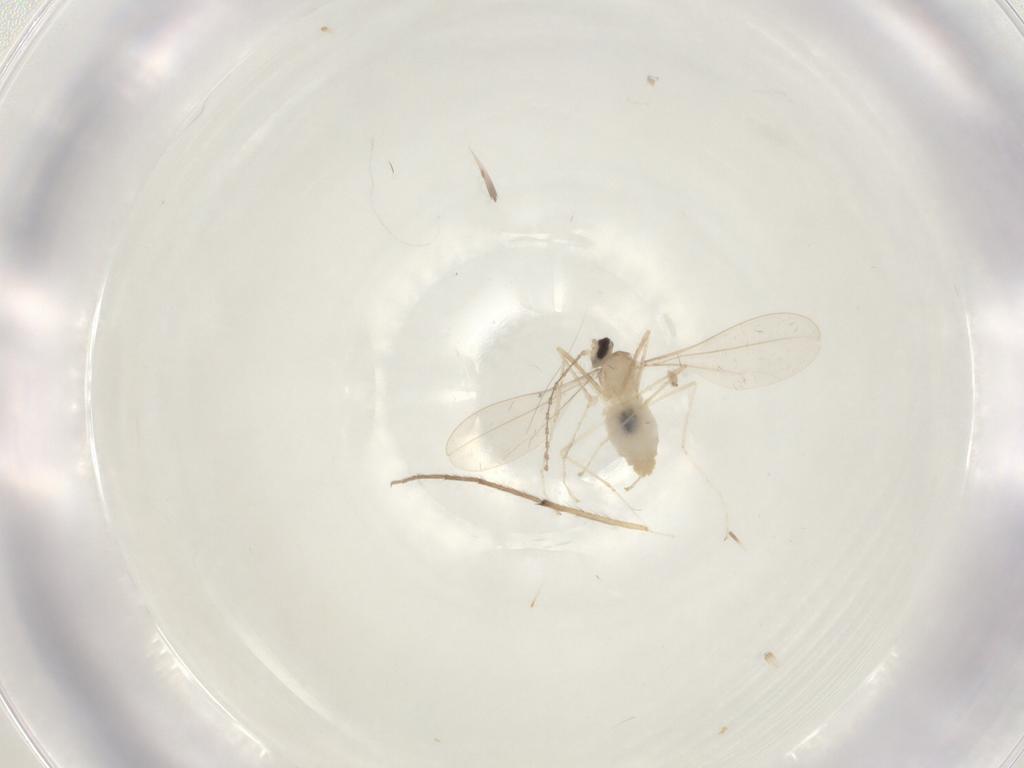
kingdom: Animalia
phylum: Arthropoda
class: Insecta
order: Diptera
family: Cecidomyiidae
